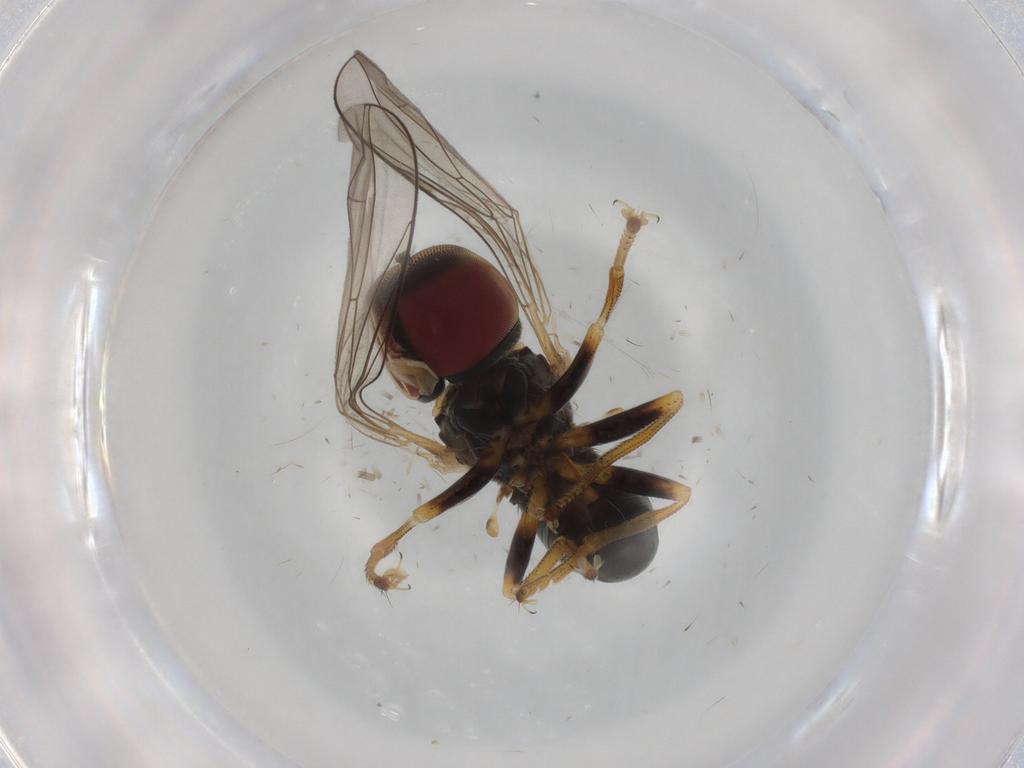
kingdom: Animalia
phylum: Arthropoda
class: Insecta
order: Diptera
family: Pipunculidae
